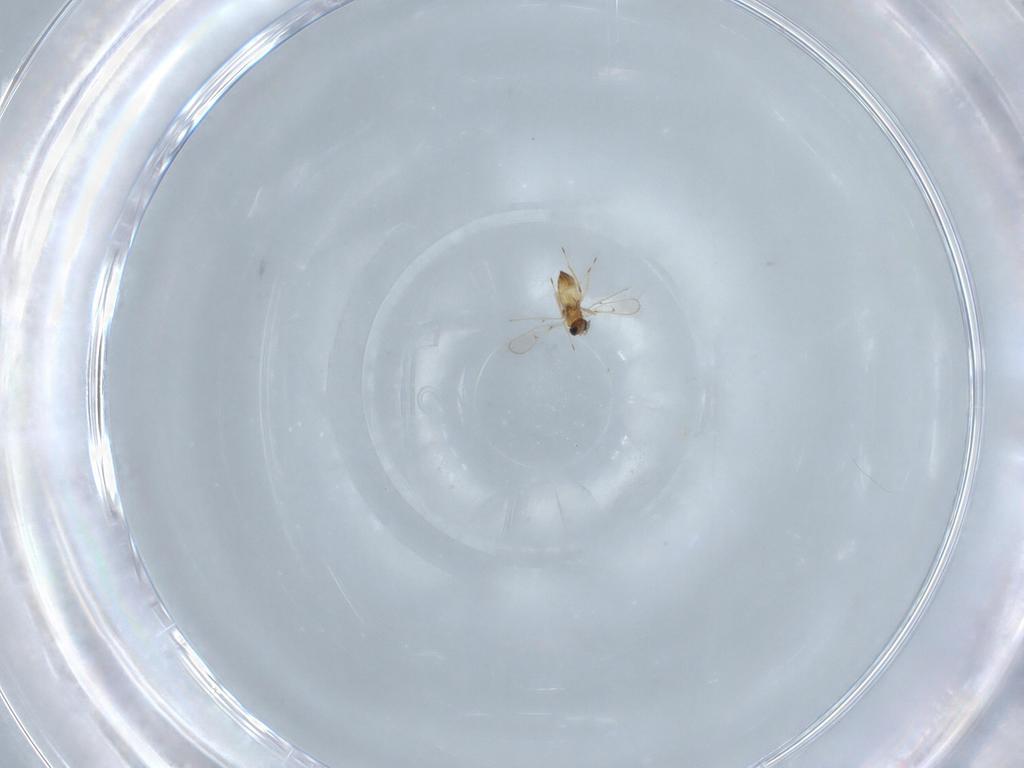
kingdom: Animalia
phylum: Arthropoda
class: Insecta
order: Hymenoptera
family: Trichogrammatidae
